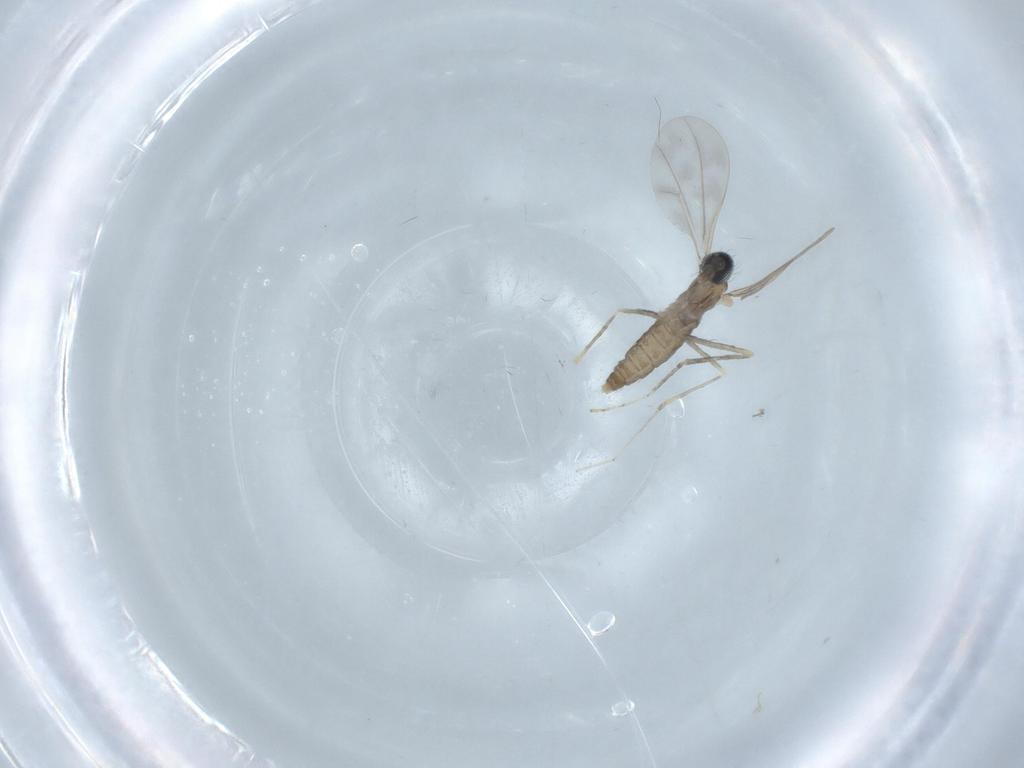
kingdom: Animalia
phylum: Arthropoda
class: Insecta
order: Diptera
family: Cecidomyiidae
